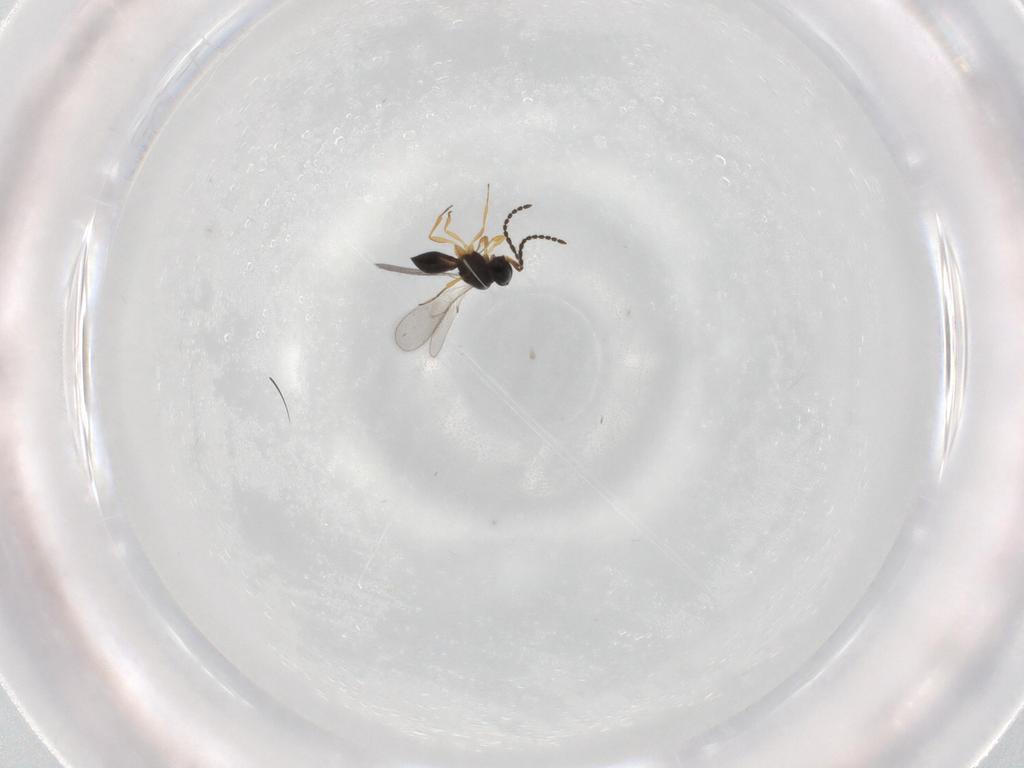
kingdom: Animalia
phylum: Arthropoda
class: Insecta
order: Hymenoptera
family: Scelionidae
